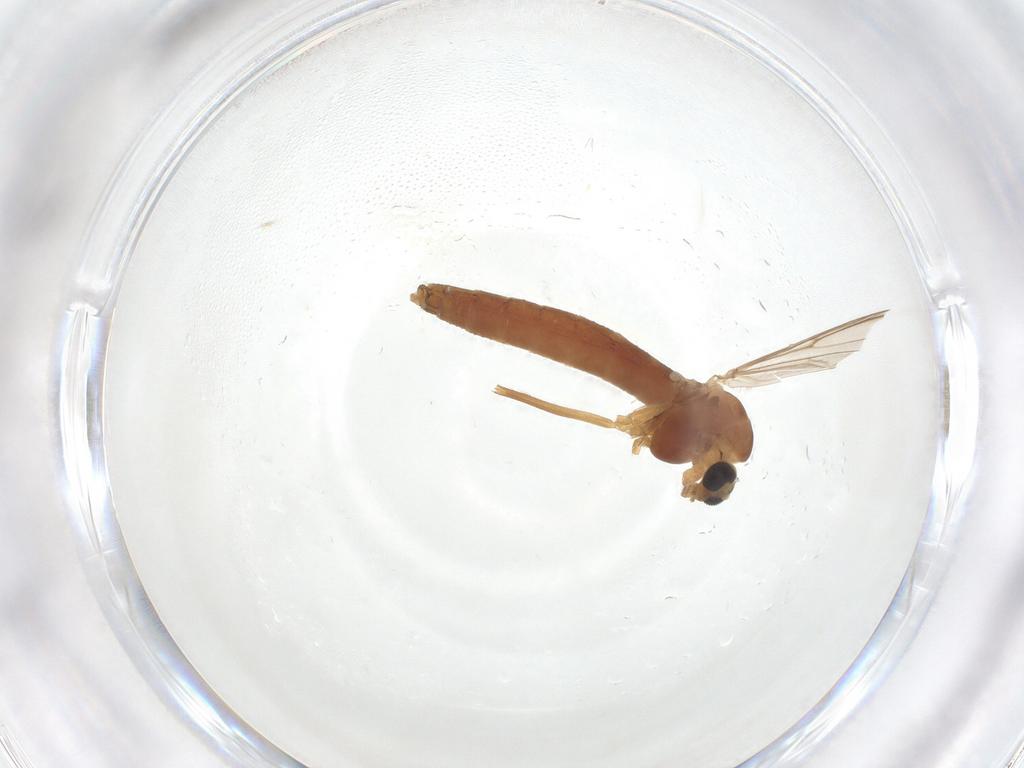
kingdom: Animalia
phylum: Arthropoda
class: Insecta
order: Diptera
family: Chironomidae
